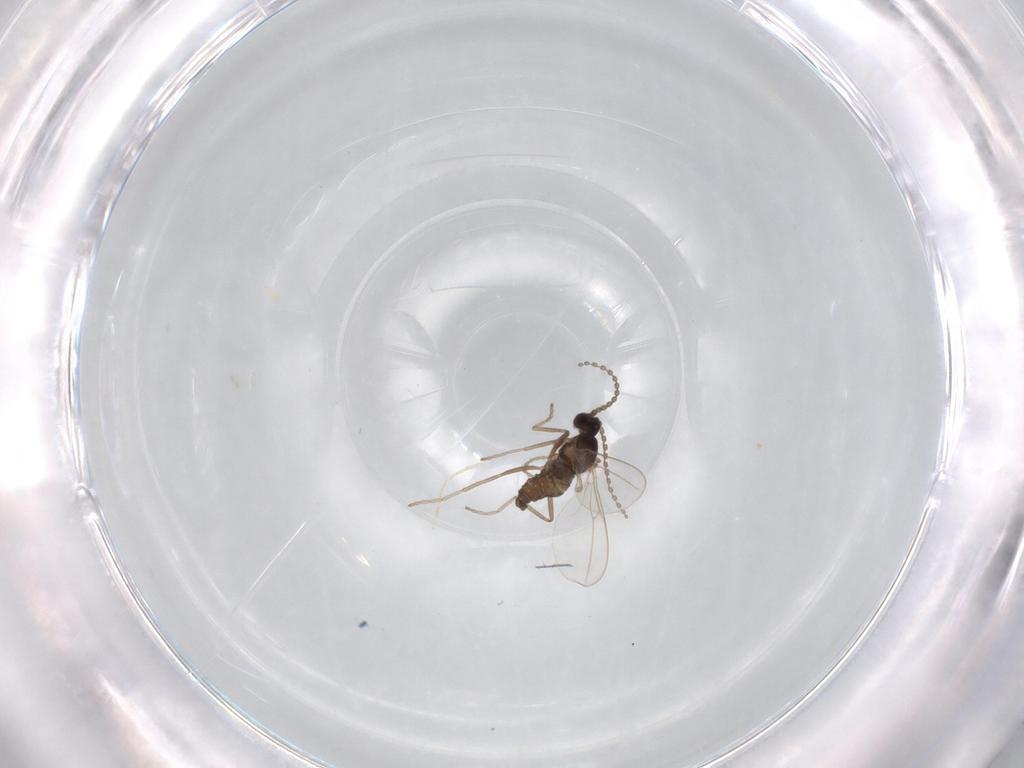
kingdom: Animalia
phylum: Arthropoda
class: Insecta
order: Diptera
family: Cecidomyiidae
